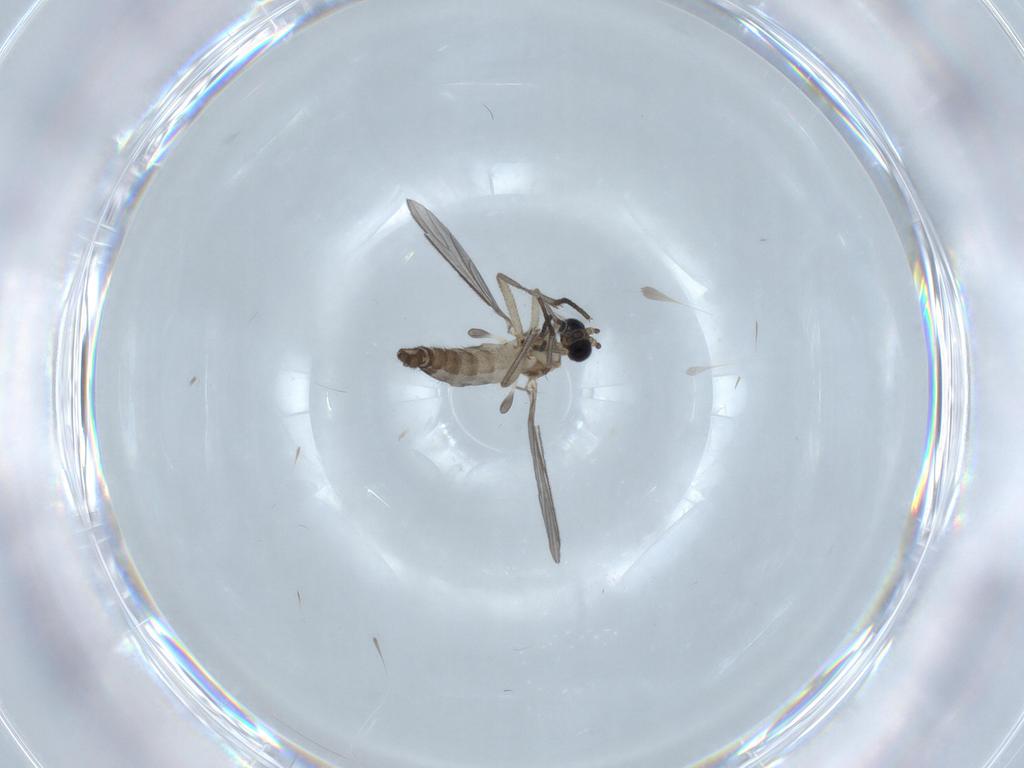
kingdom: Animalia
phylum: Arthropoda
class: Insecta
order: Diptera
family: Sciaridae
